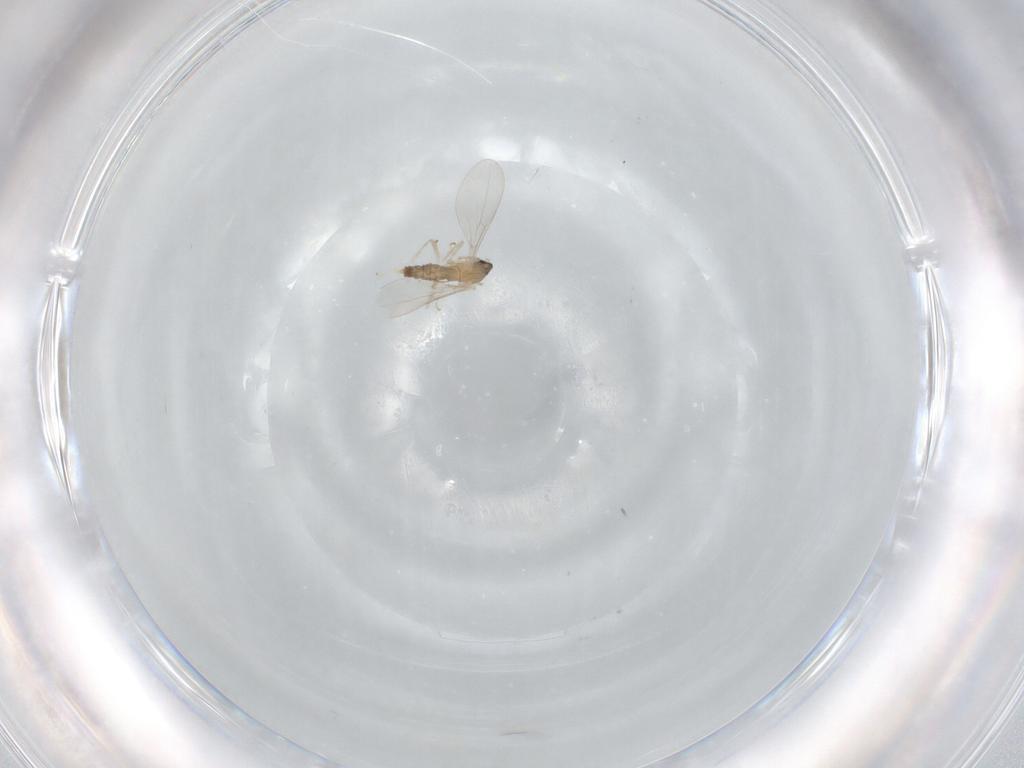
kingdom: Animalia
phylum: Arthropoda
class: Insecta
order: Diptera
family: Cecidomyiidae
